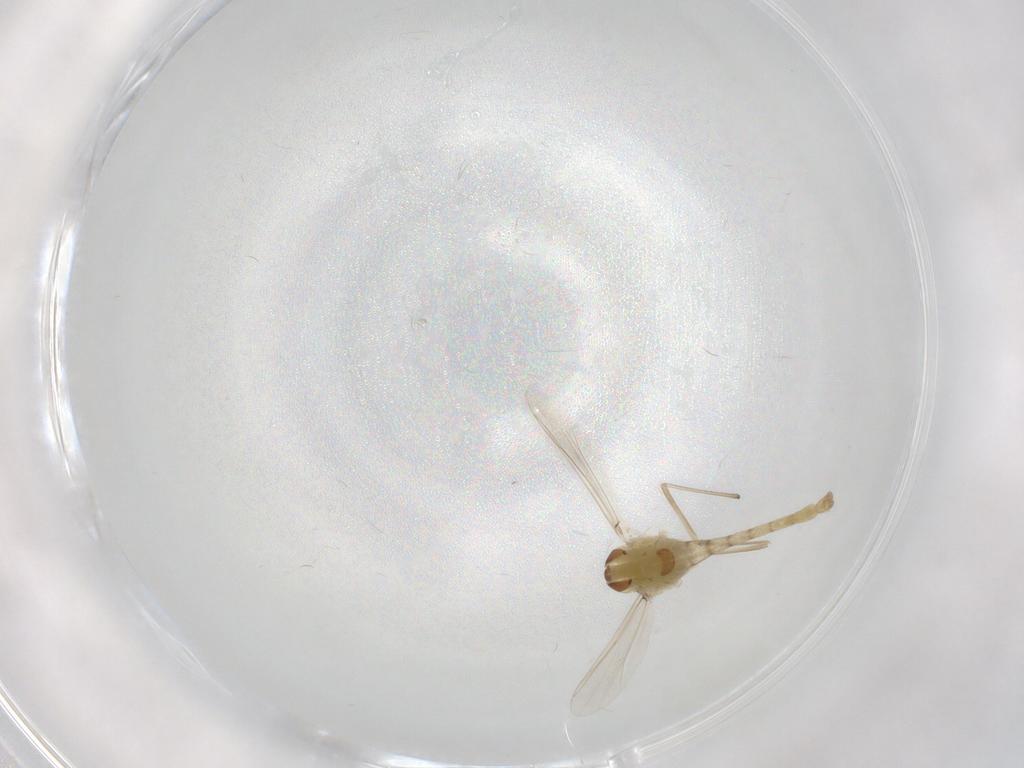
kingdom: Animalia
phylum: Arthropoda
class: Insecta
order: Diptera
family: Chironomidae
